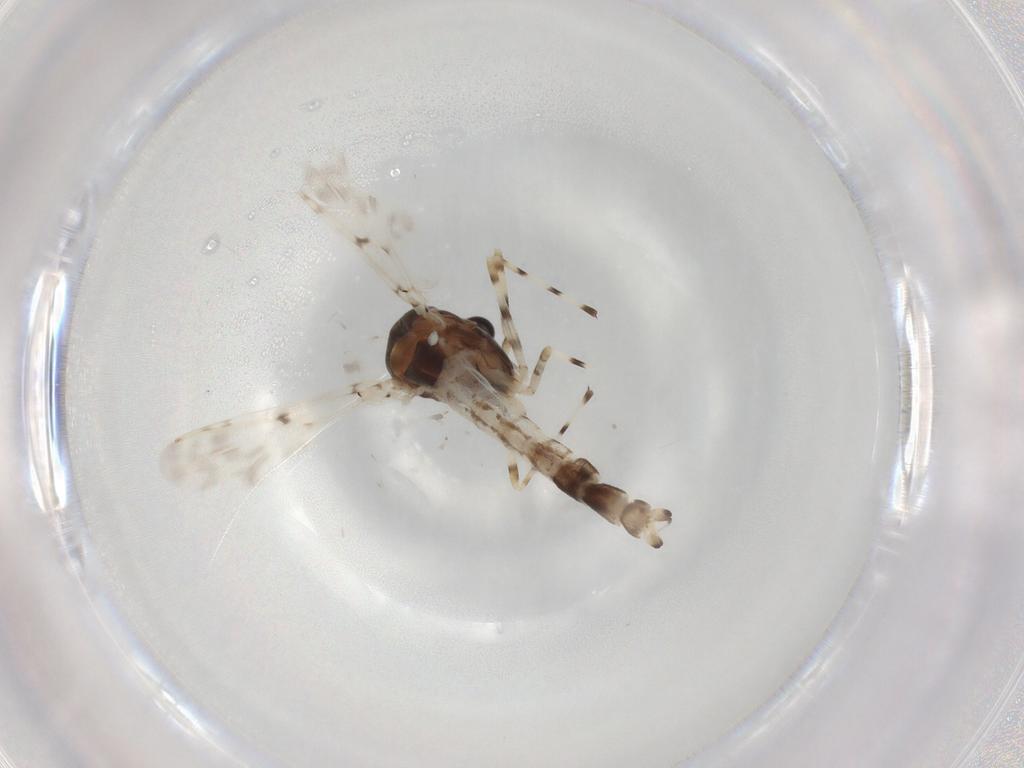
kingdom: Animalia
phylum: Arthropoda
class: Insecta
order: Diptera
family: Chironomidae
